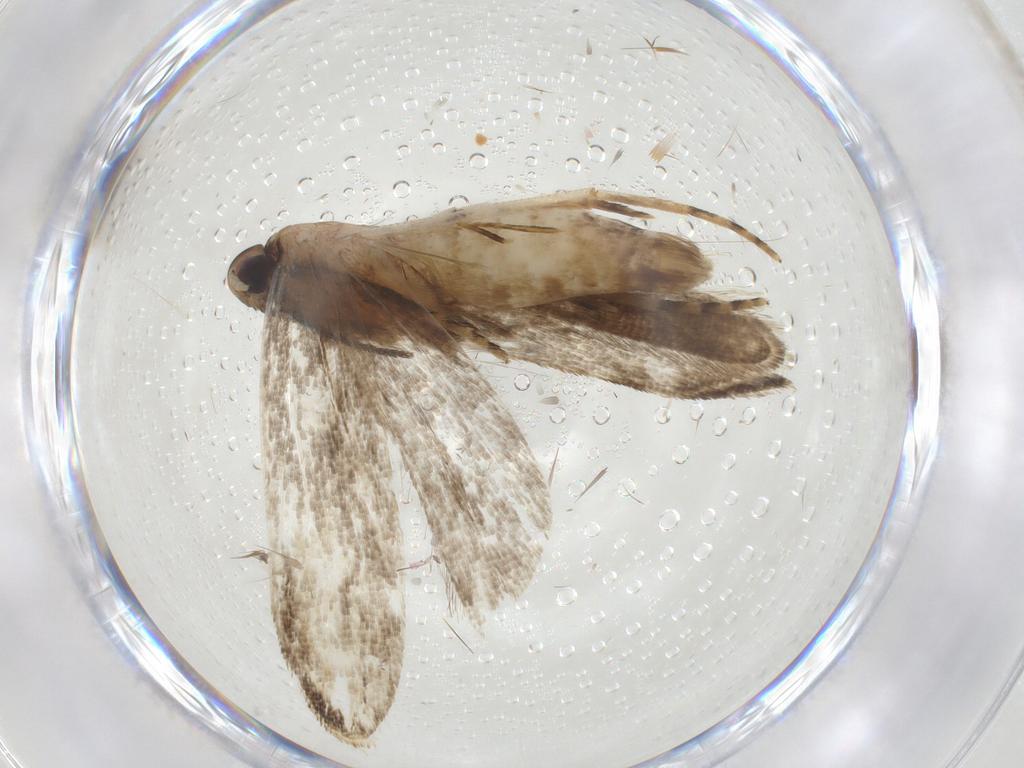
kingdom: Animalia
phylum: Arthropoda
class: Insecta
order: Lepidoptera
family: Gelechiidae
